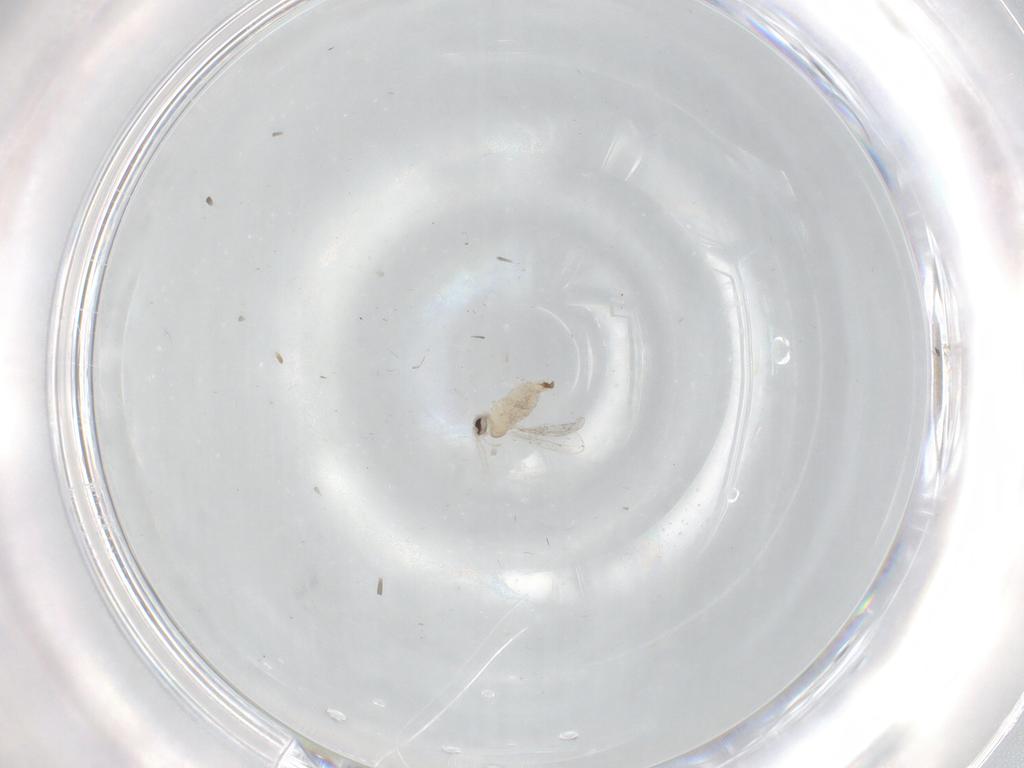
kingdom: Animalia
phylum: Arthropoda
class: Insecta
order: Diptera
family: Cecidomyiidae
